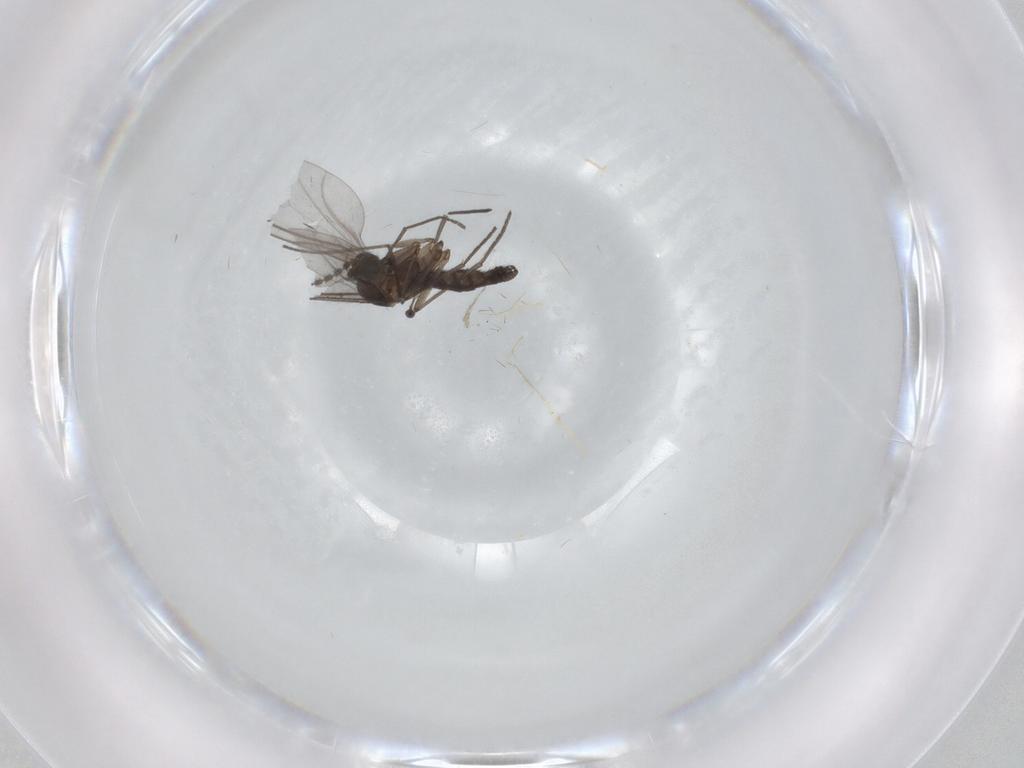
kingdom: Animalia
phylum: Arthropoda
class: Insecta
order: Diptera
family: Sciaridae
